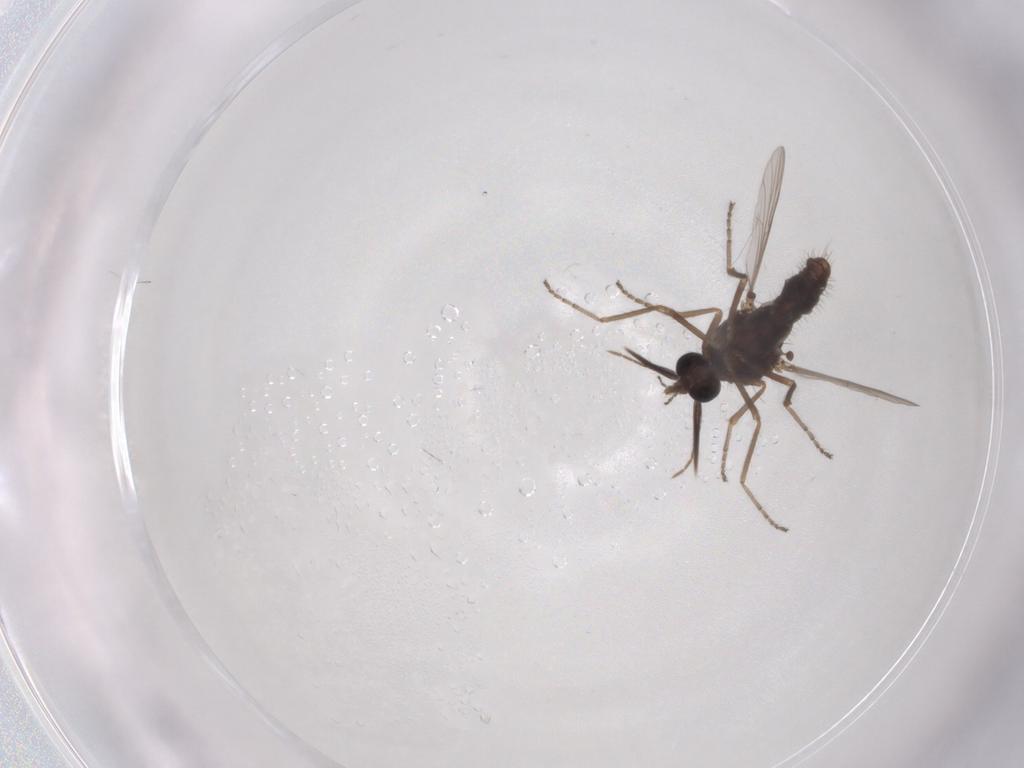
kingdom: Animalia
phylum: Arthropoda
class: Insecta
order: Diptera
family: Ceratopogonidae
